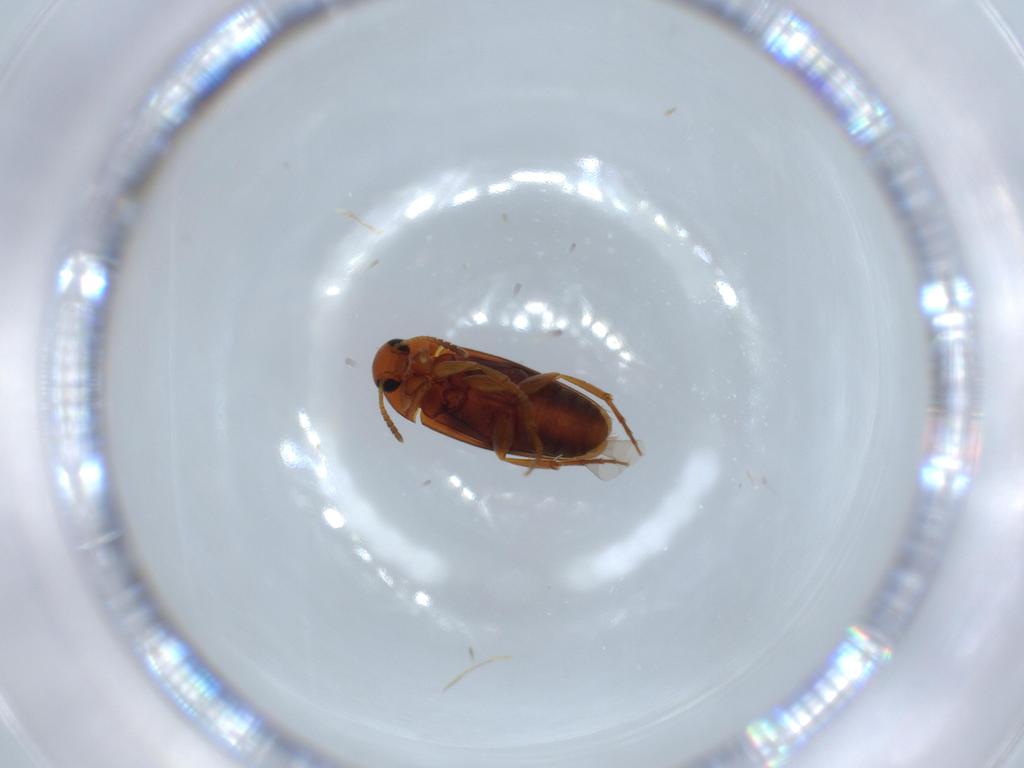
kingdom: Animalia
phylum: Arthropoda
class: Insecta
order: Coleoptera
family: Scraptiidae
